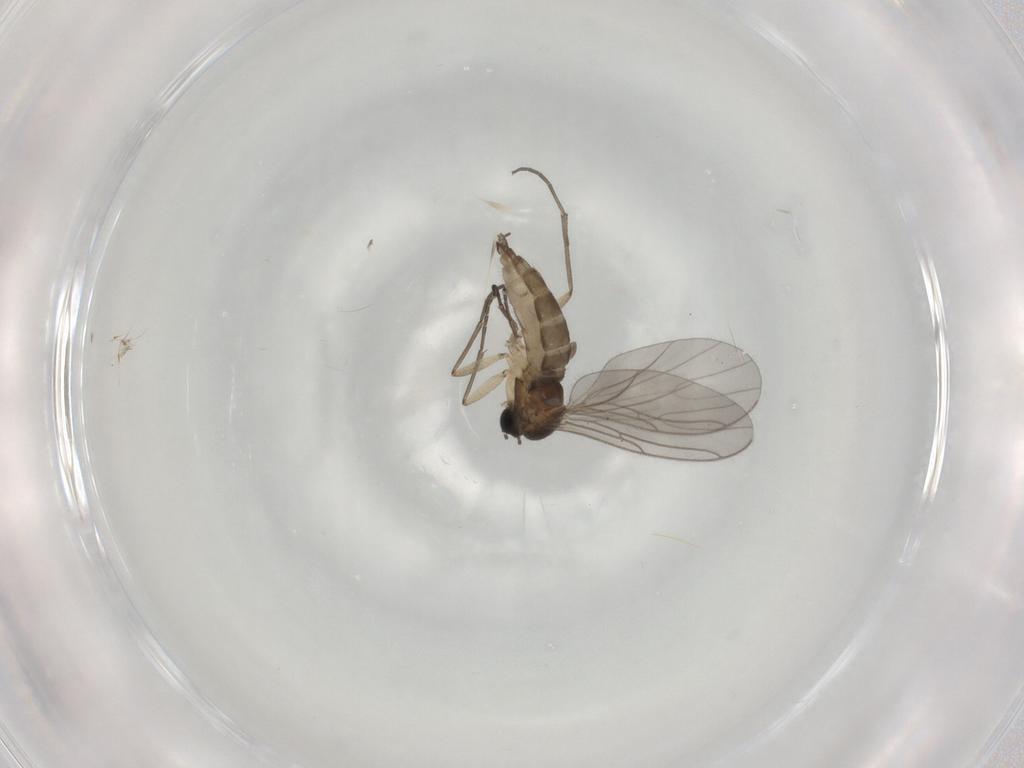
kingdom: Animalia
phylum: Arthropoda
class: Insecta
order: Diptera
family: Sciaridae
